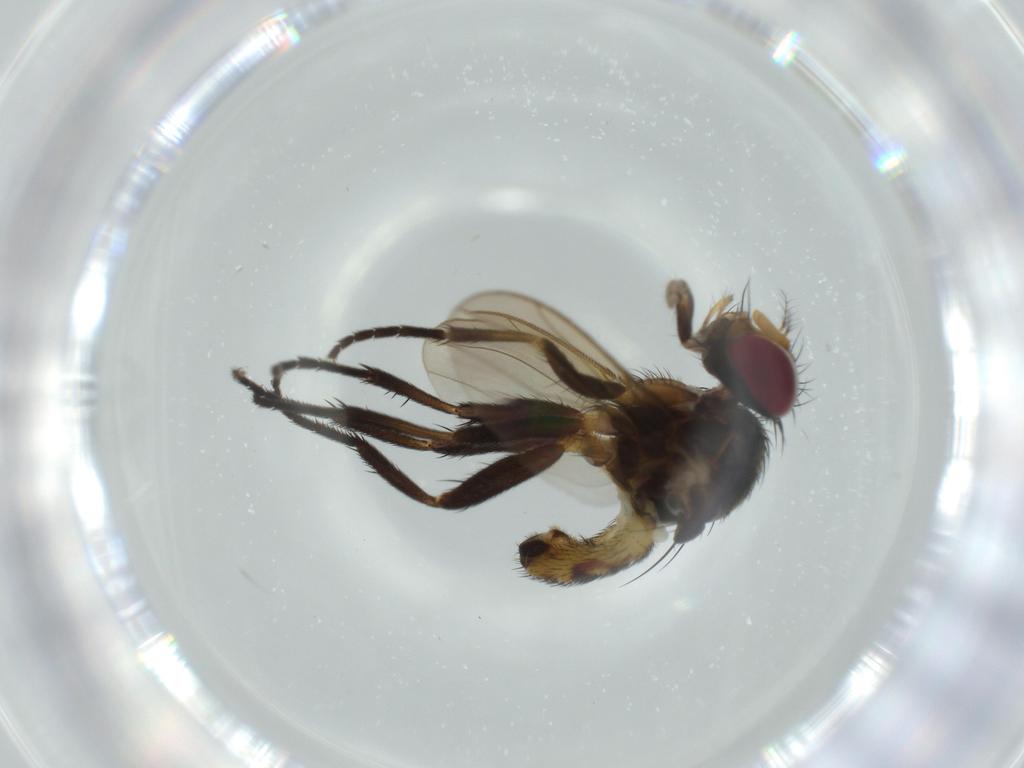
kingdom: Animalia
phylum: Arthropoda
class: Insecta
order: Diptera
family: Anthomyiidae
